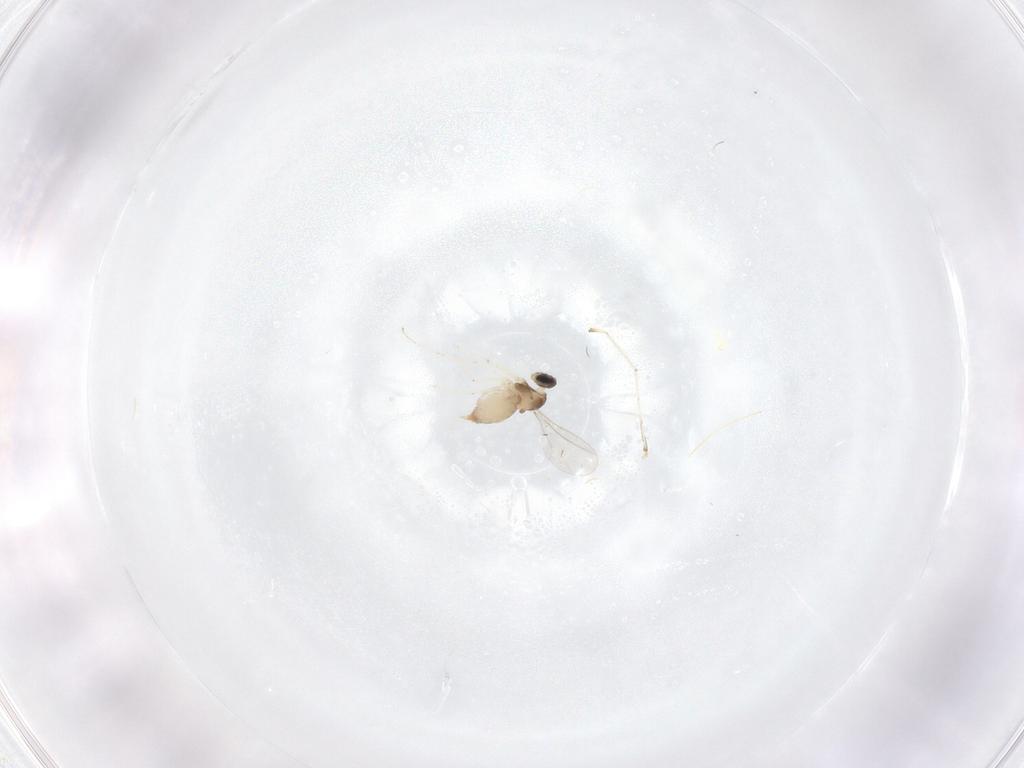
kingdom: Animalia
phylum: Arthropoda
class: Insecta
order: Diptera
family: Cecidomyiidae
